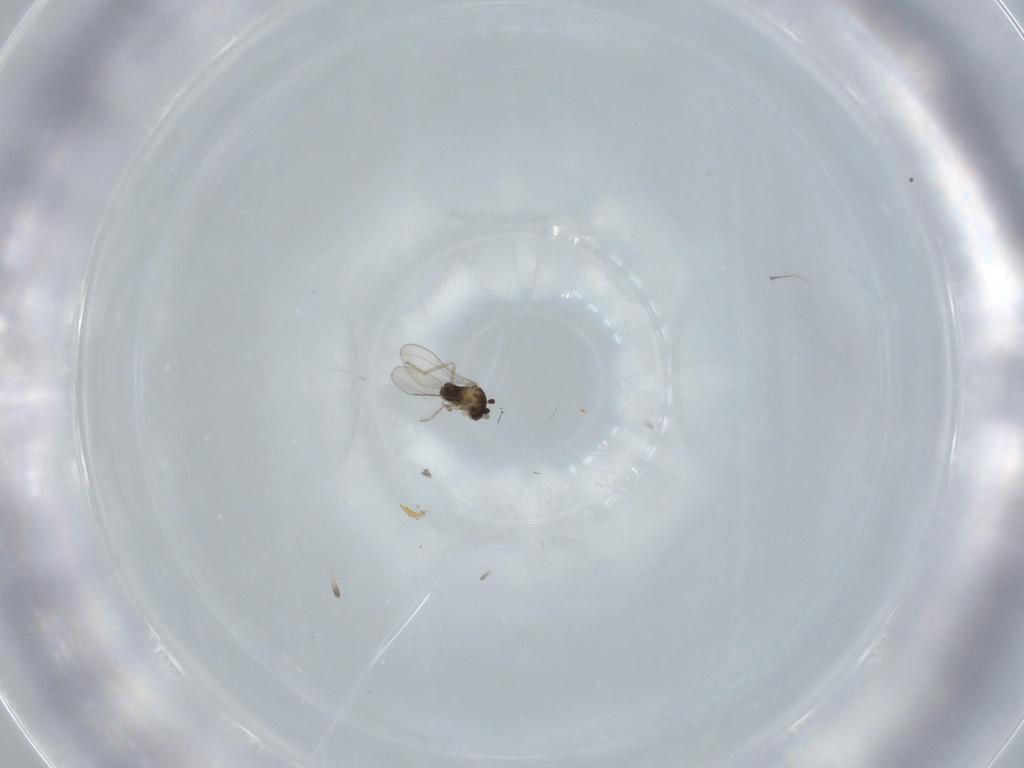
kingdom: Animalia
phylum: Arthropoda
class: Insecta
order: Diptera
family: Cecidomyiidae
